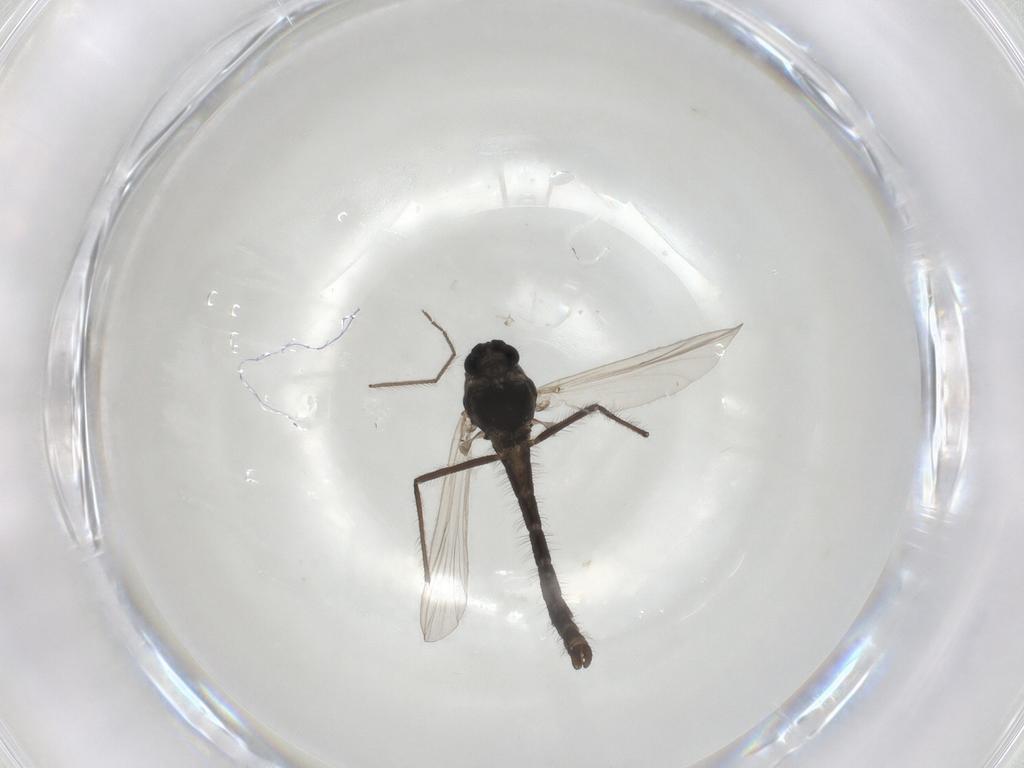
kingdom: Animalia
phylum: Arthropoda
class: Insecta
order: Diptera
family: Chironomidae
